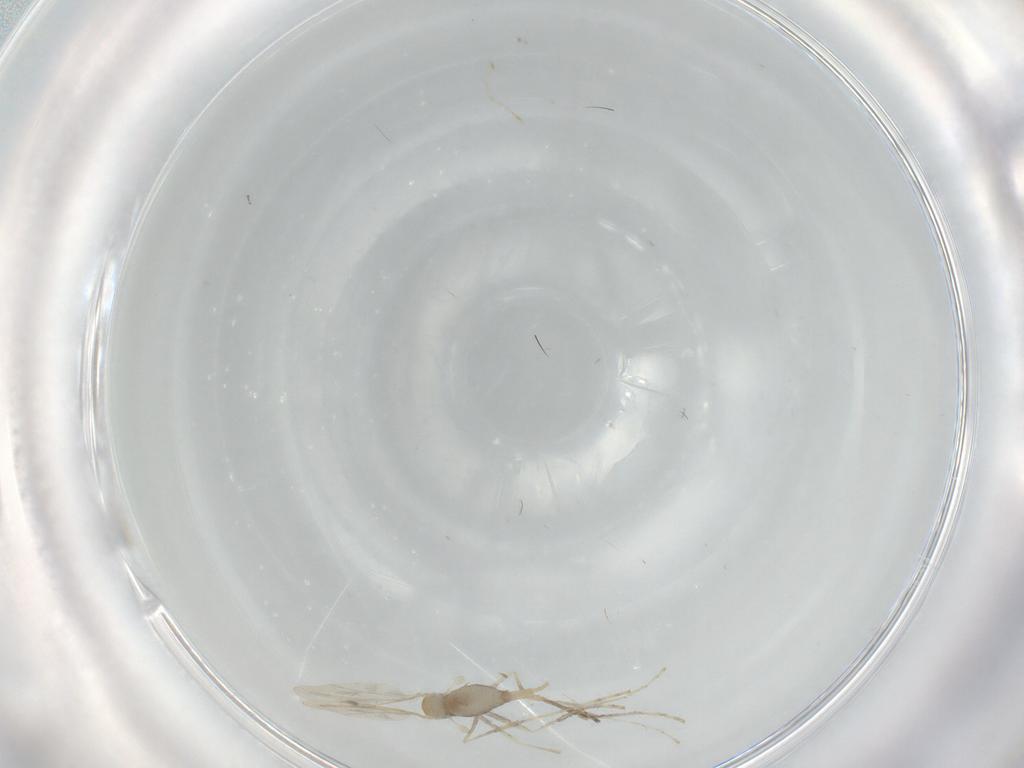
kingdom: Animalia
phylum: Arthropoda
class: Insecta
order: Diptera
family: Cecidomyiidae
